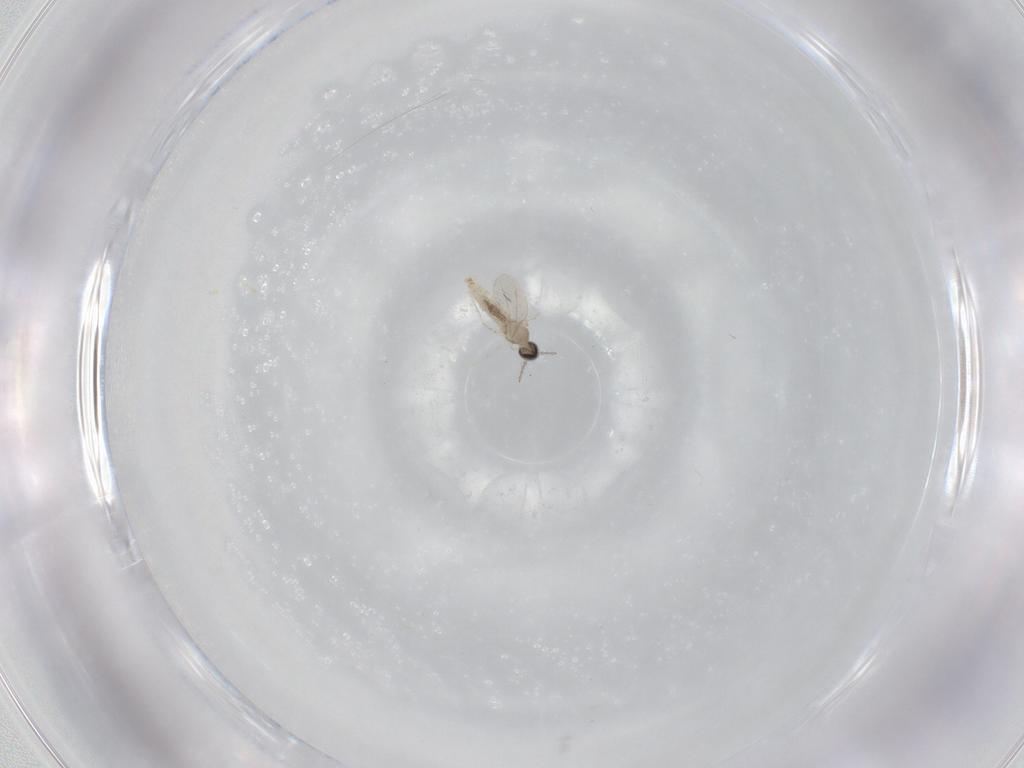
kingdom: Animalia
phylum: Arthropoda
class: Insecta
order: Diptera
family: Cecidomyiidae
